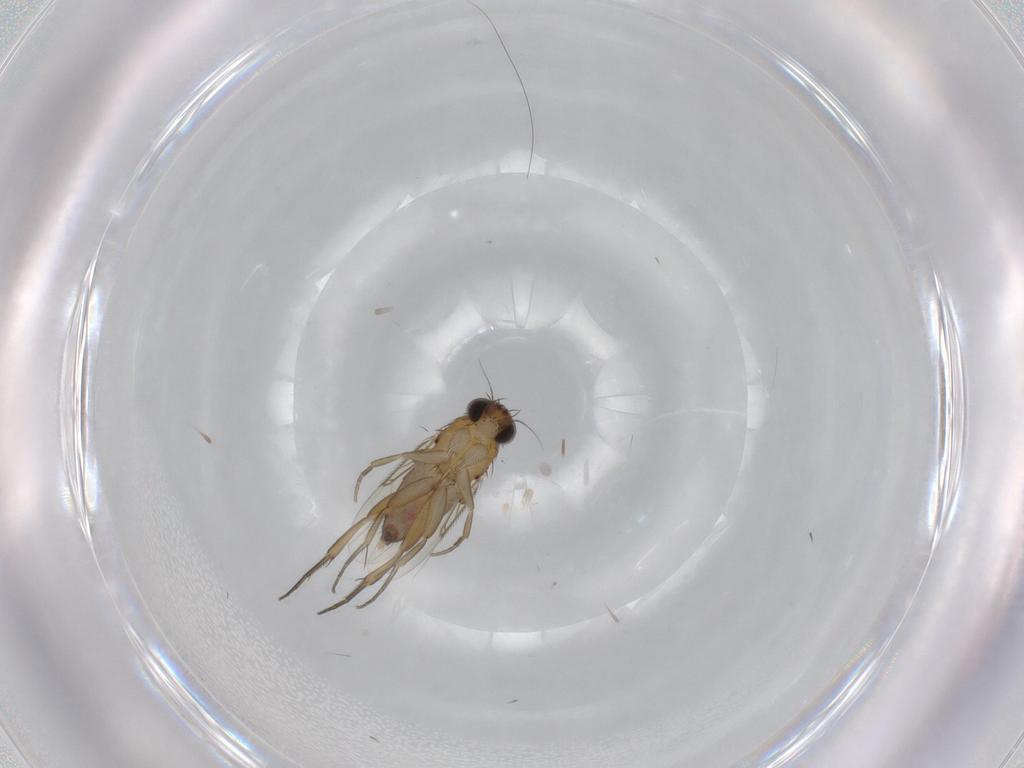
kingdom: Animalia
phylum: Arthropoda
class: Insecta
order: Diptera
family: Phoridae
